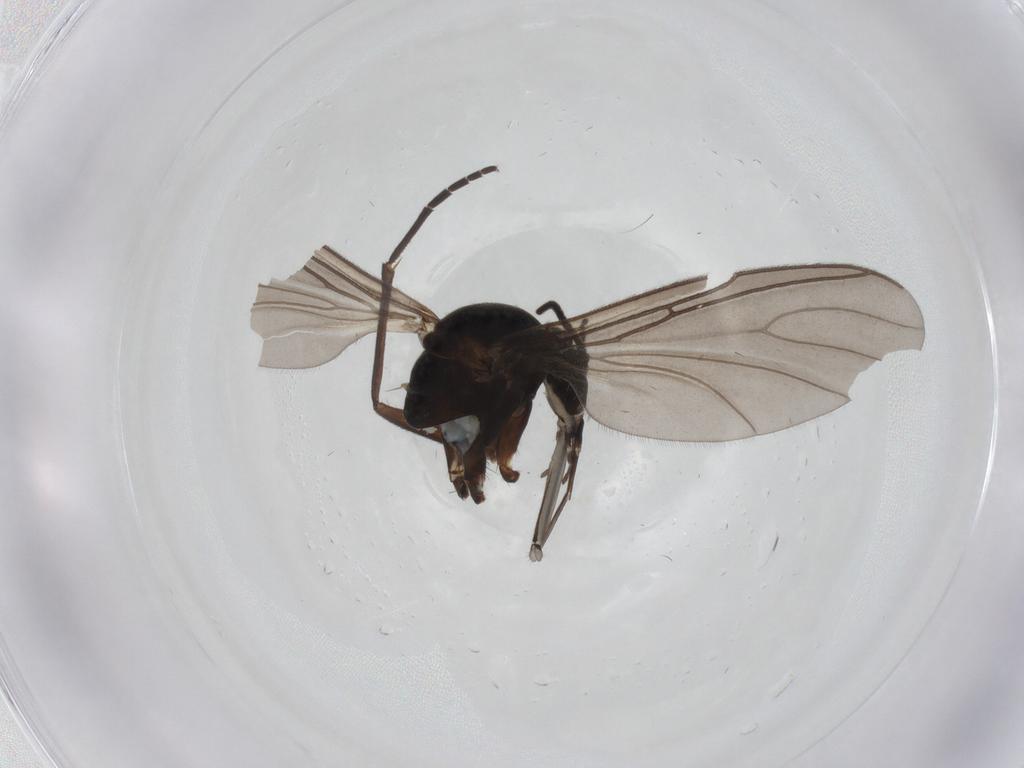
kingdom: Animalia
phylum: Arthropoda
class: Insecta
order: Diptera
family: Sciaridae
